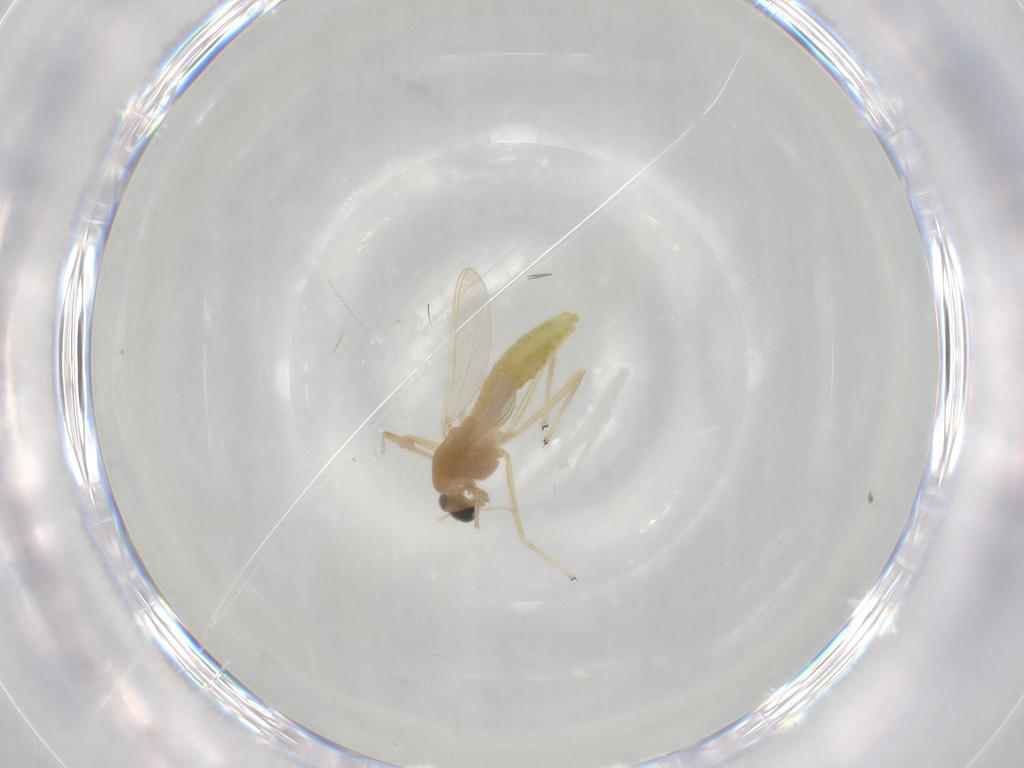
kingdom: Animalia
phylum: Arthropoda
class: Insecta
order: Diptera
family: Chironomidae
